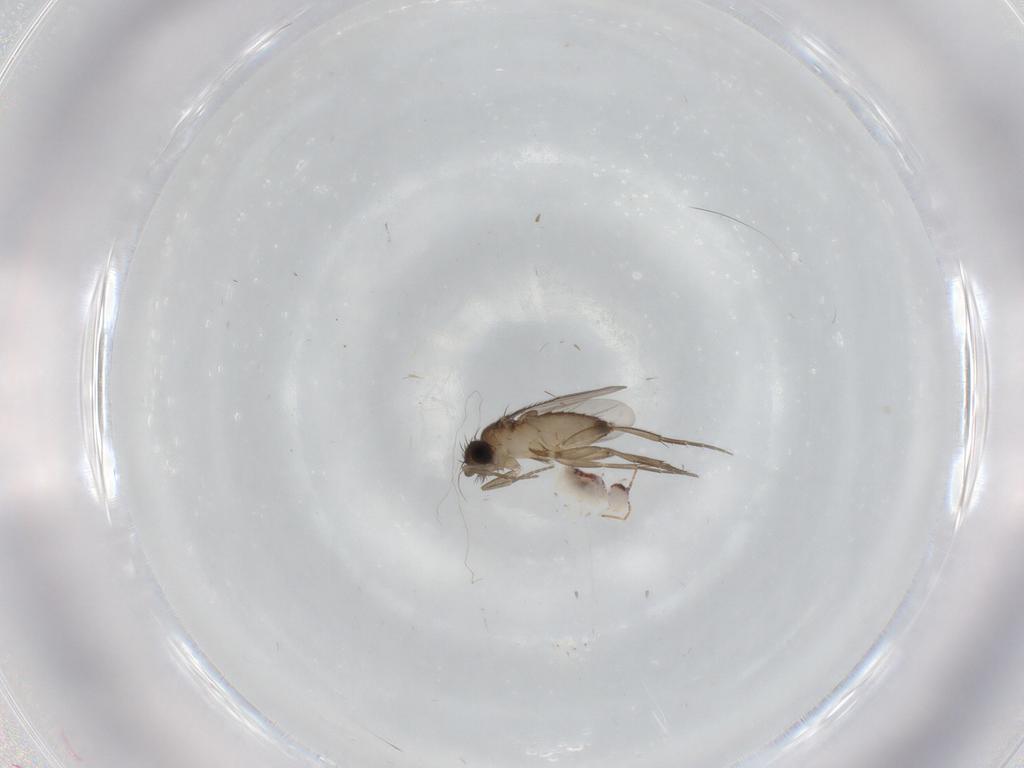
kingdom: Animalia
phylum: Arthropoda
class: Insecta
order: Diptera
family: Phoridae
